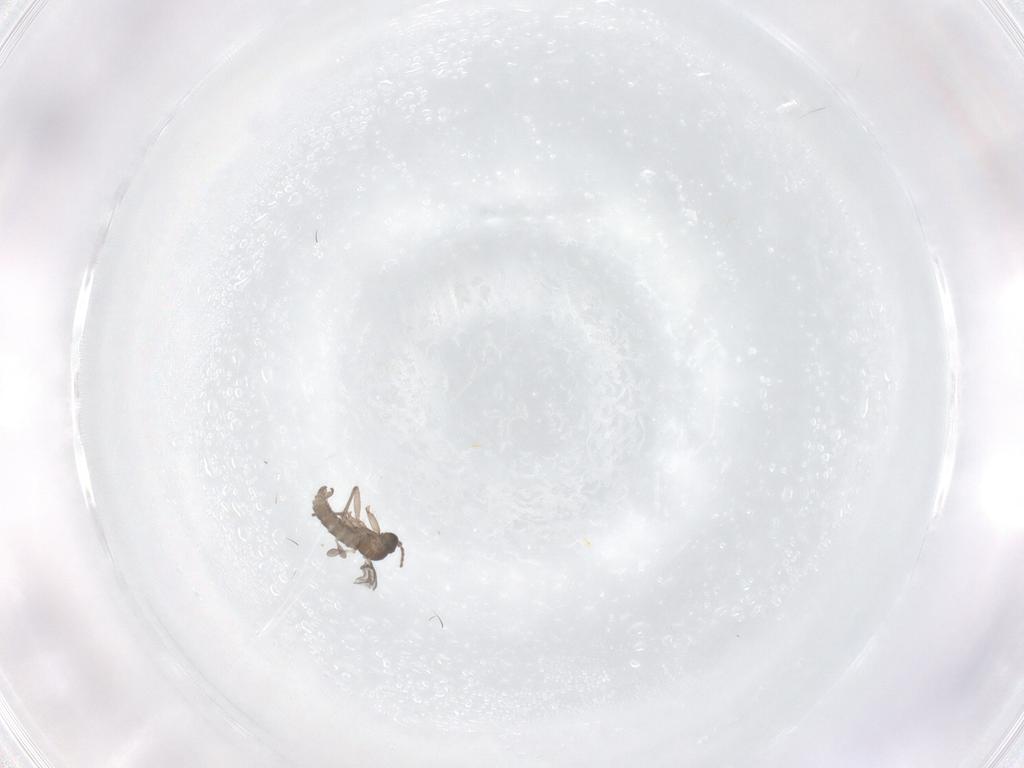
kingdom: Animalia
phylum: Arthropoda
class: Insecta
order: Diptera
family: Sciaridae
